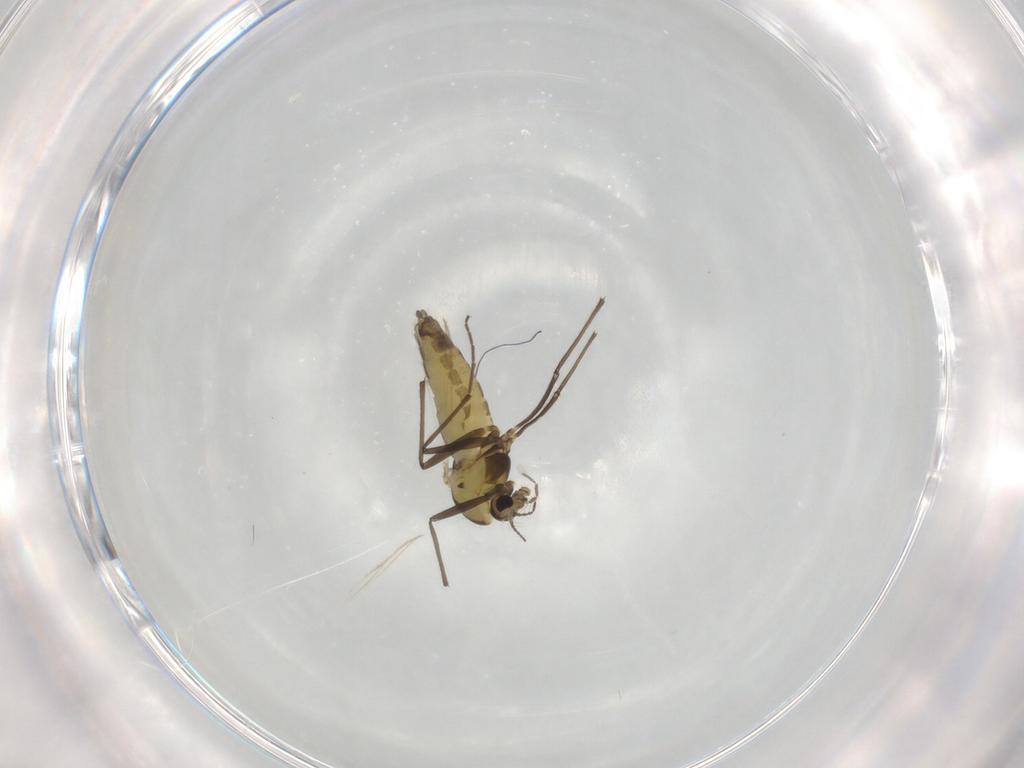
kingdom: Animalia
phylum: Arthropoda
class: Insecta
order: Diptera
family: Chironomidae
